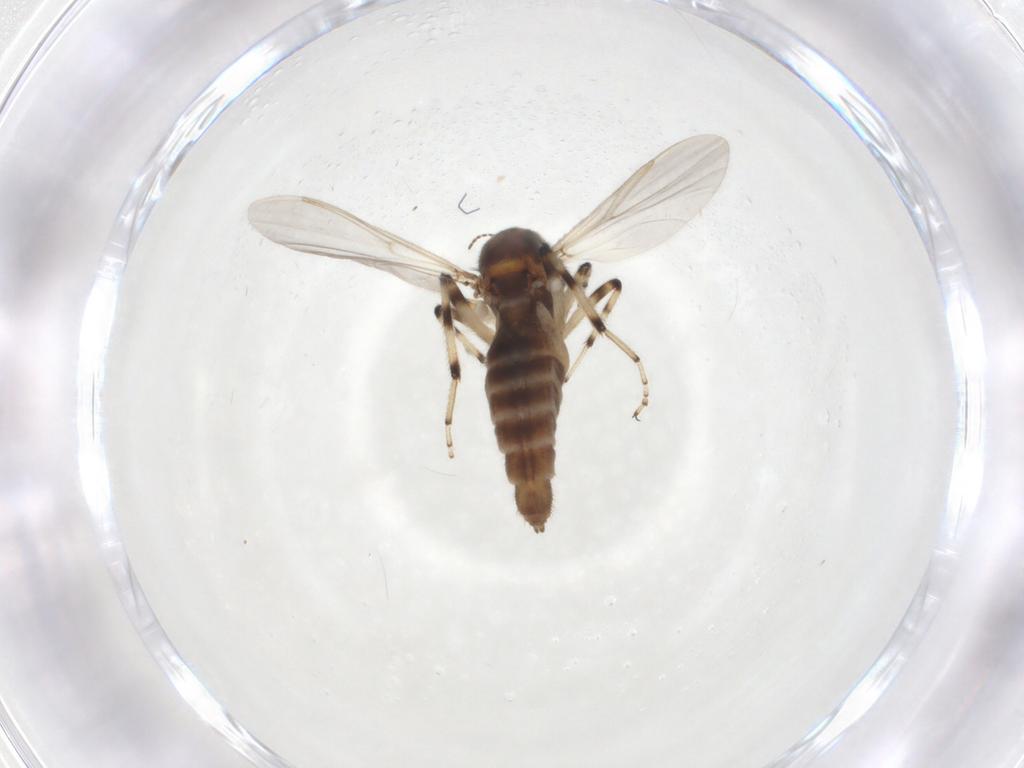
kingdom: Animalia
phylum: Arthropoda
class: Insecta
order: Diptera
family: Ceratopogonidae
